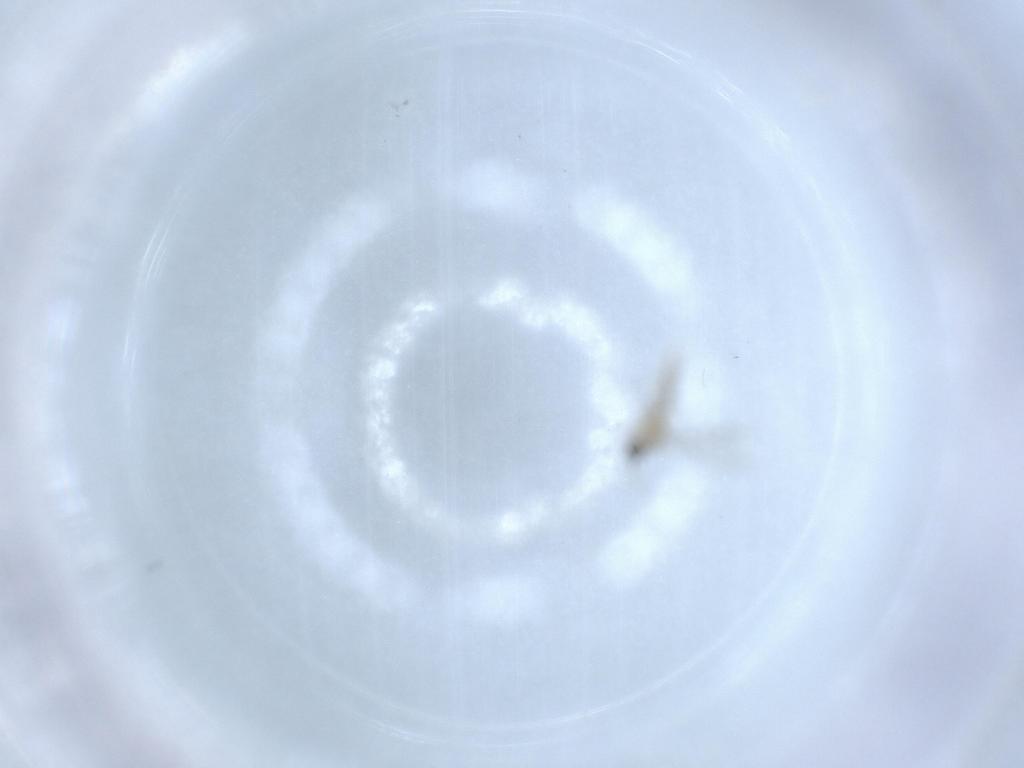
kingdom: Animalia
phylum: Arthropoda
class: Insecta
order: Diptera
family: Cecidomyiidae
